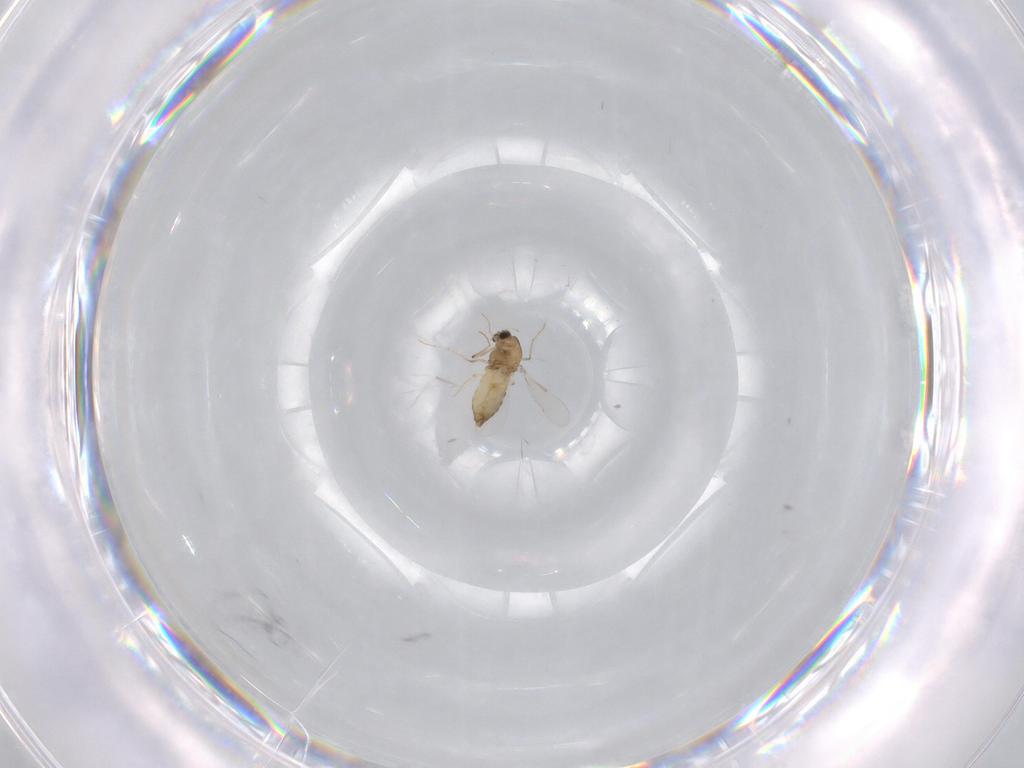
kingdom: Animalia
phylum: Arthropoda
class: Insecta
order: Diptera
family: Chironomidae
